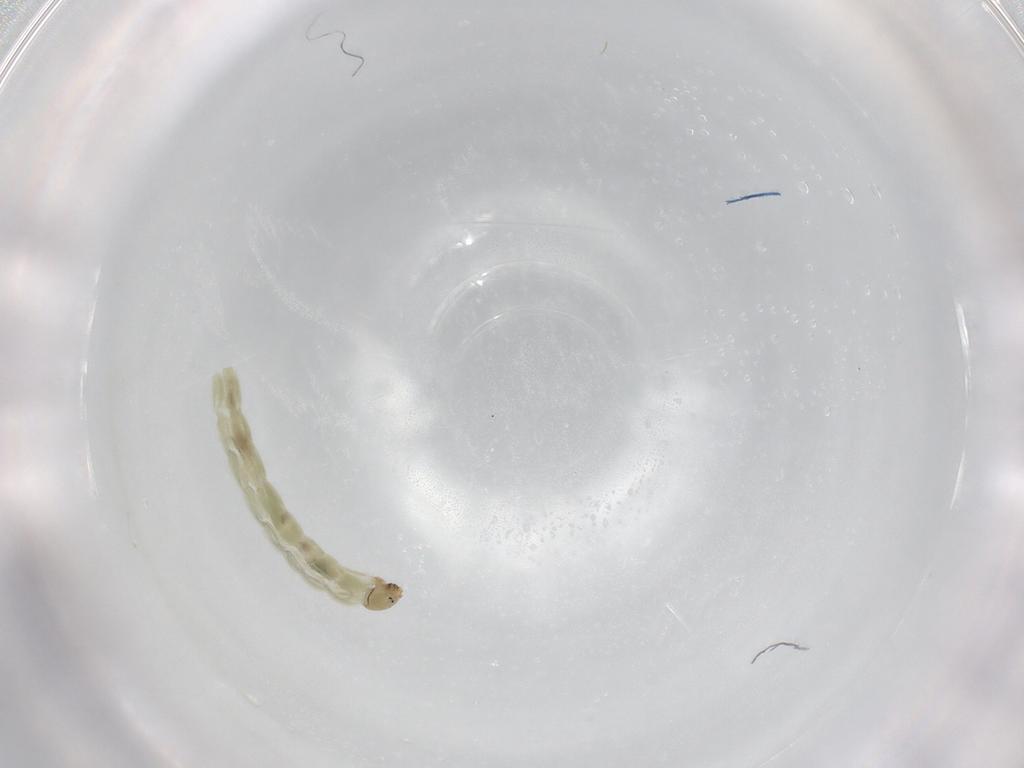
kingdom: Animalia
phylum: Arthropoda
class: Insecta
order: Diptera
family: Chironomidae
